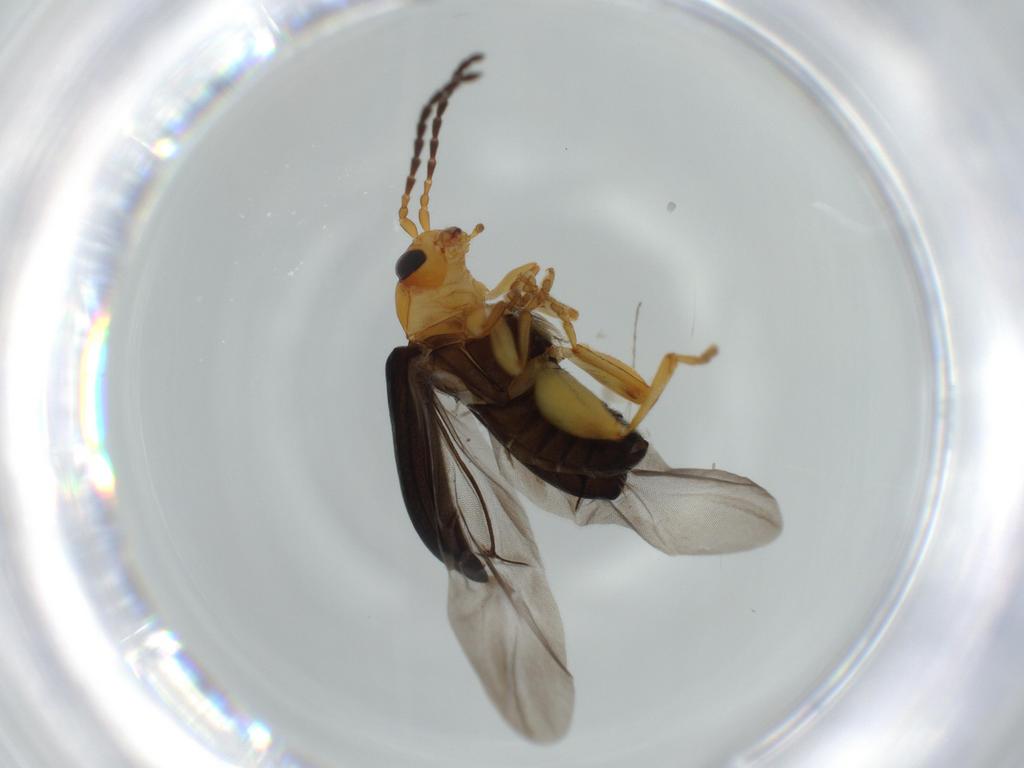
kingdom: Animalia
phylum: Arthropoda
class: Insecta
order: Coleoptera
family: Chrysomelidae
